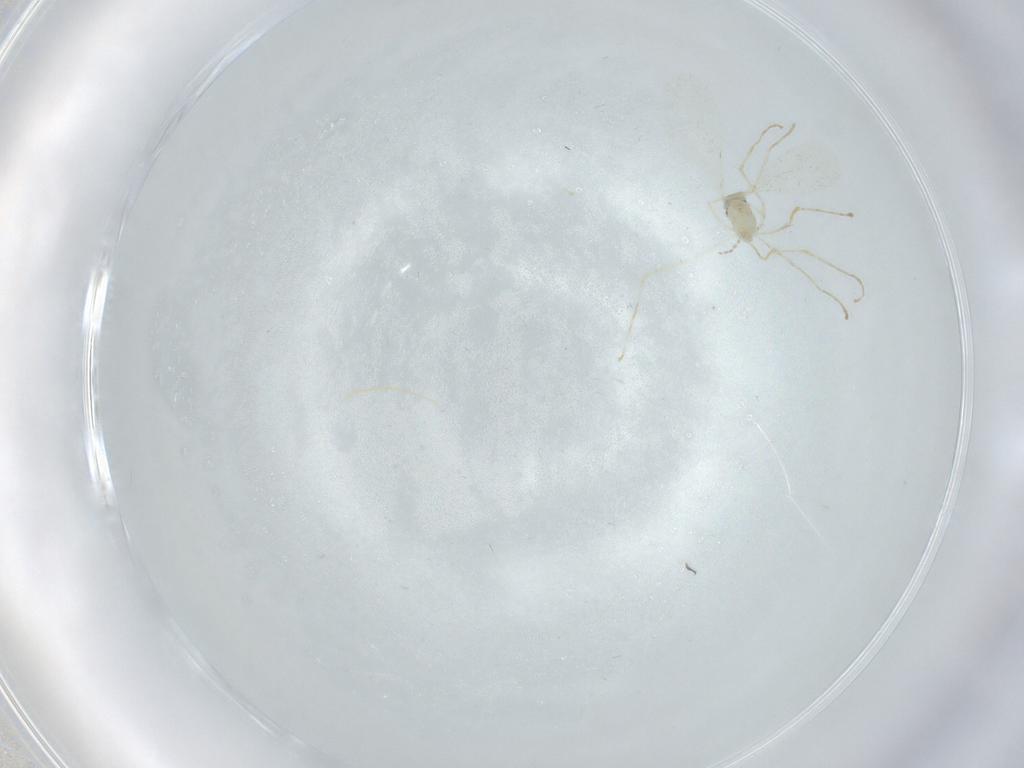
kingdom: Animalia
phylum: Arthropoda
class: Insecta
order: Diptera
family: Cecidomyiidae
